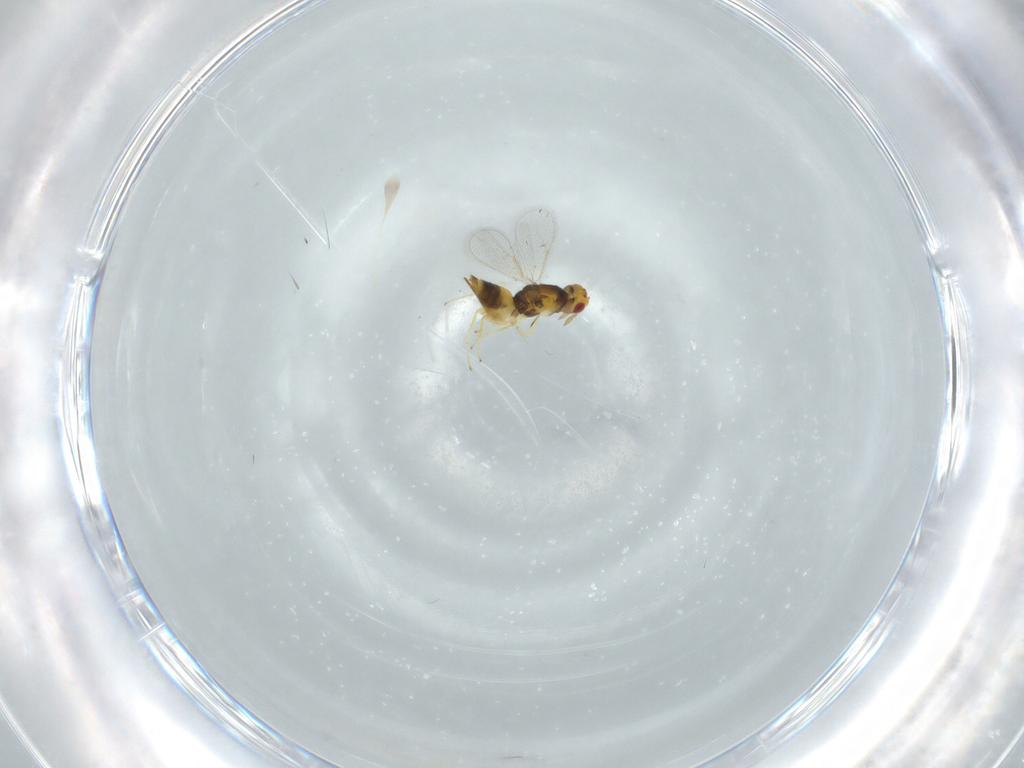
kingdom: Animalia
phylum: Arthropoda
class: Insecta
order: Hymenoptera
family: Eulophidae
